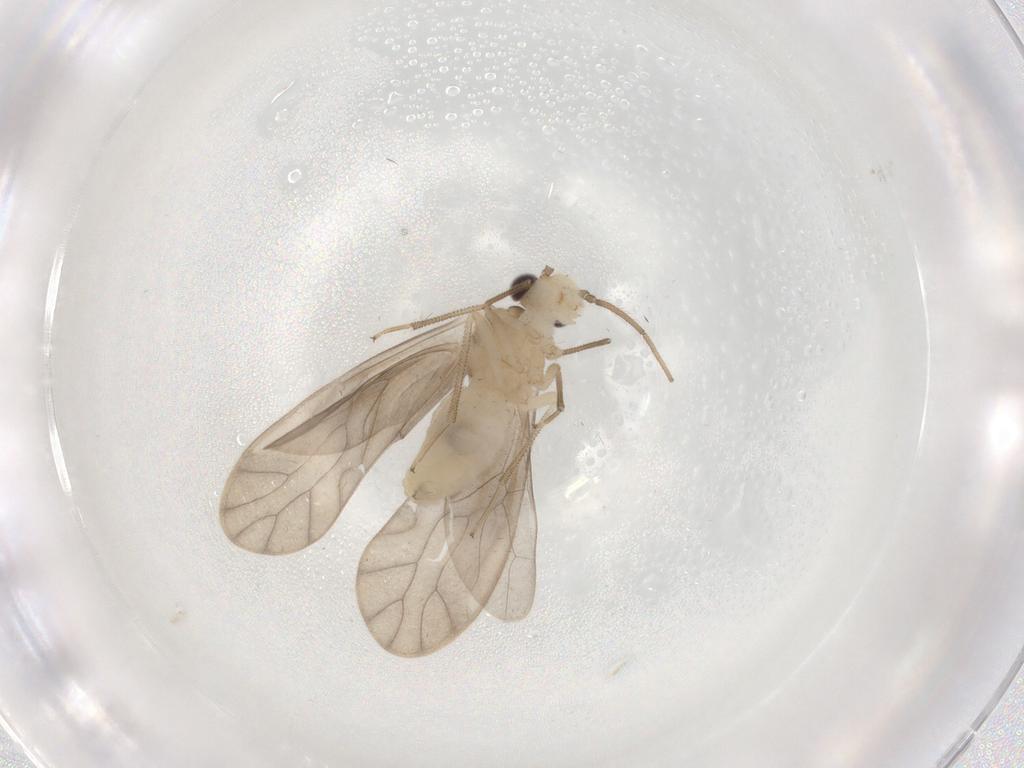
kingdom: Animalia
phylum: Arthropoda
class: Insecta
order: Psocodea
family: Caeciliusidae
